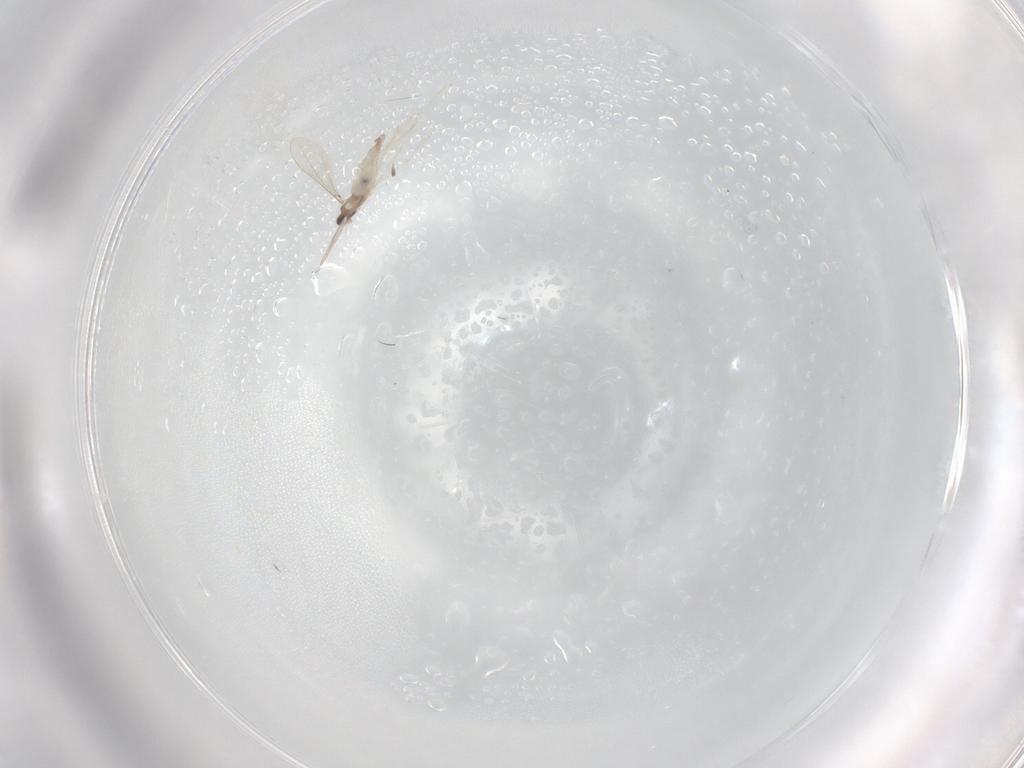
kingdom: Animalia
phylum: Arthropoda
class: Insecta
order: Diptera
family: Cecidomyiidae
